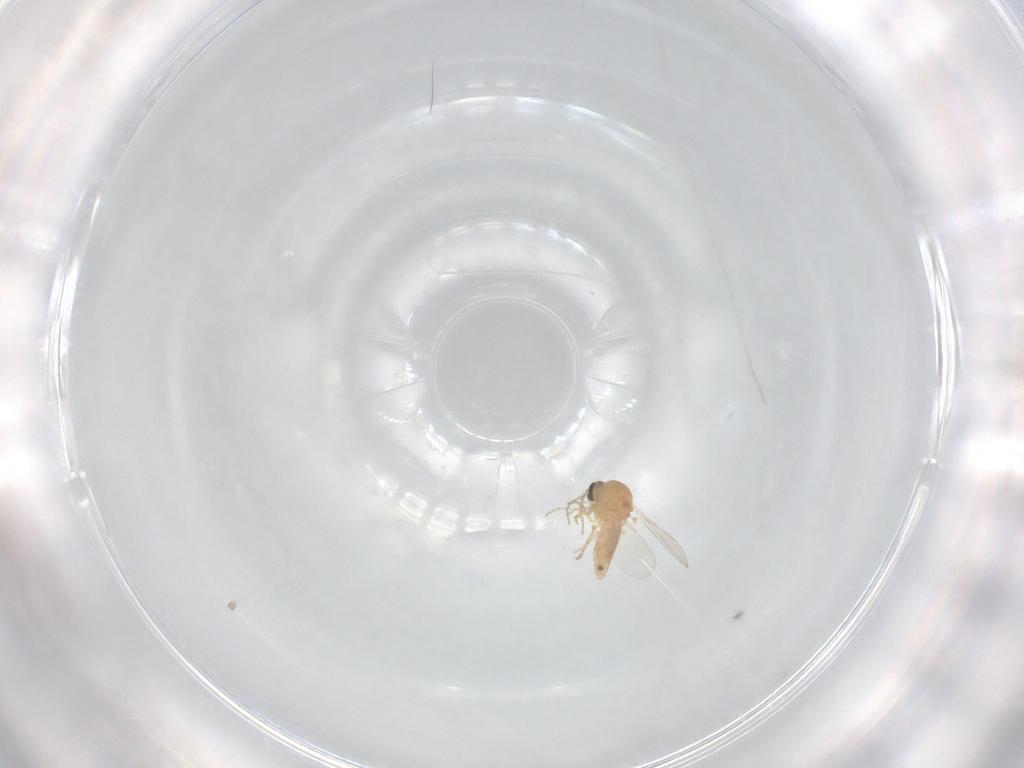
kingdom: Animalia
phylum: Arthropoda
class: Insecta
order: Diptera
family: Ceratopogonidae
